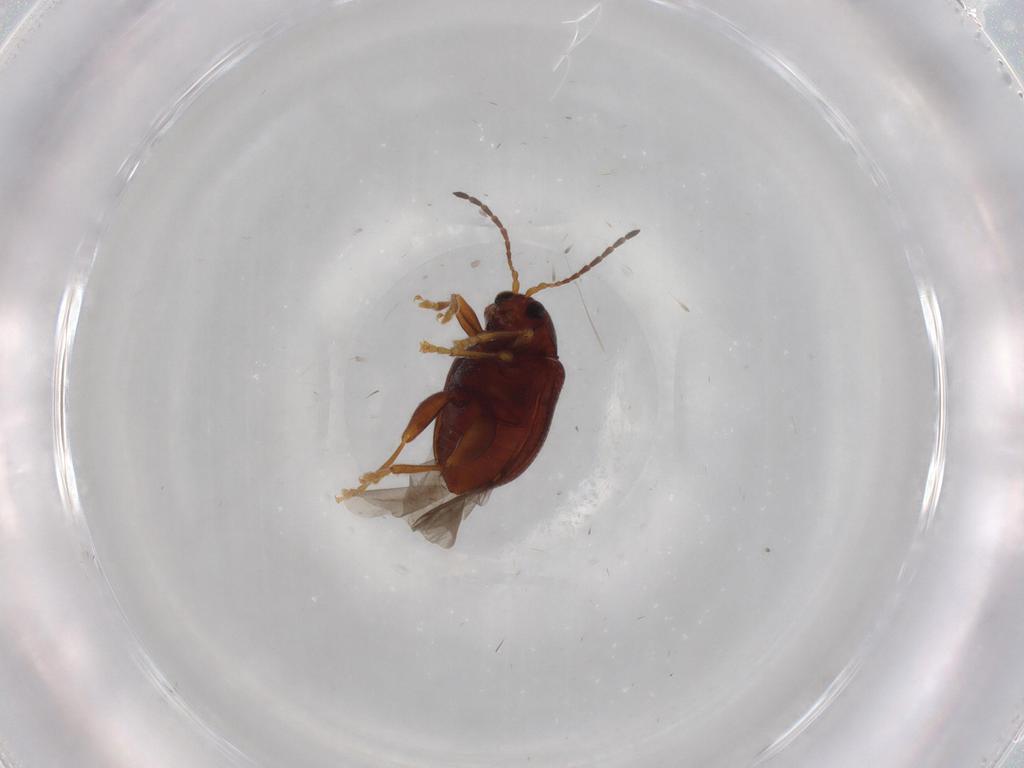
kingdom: Animalia
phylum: Arthropoda
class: Insecta
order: Coleoptera
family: Chrysomelidae
